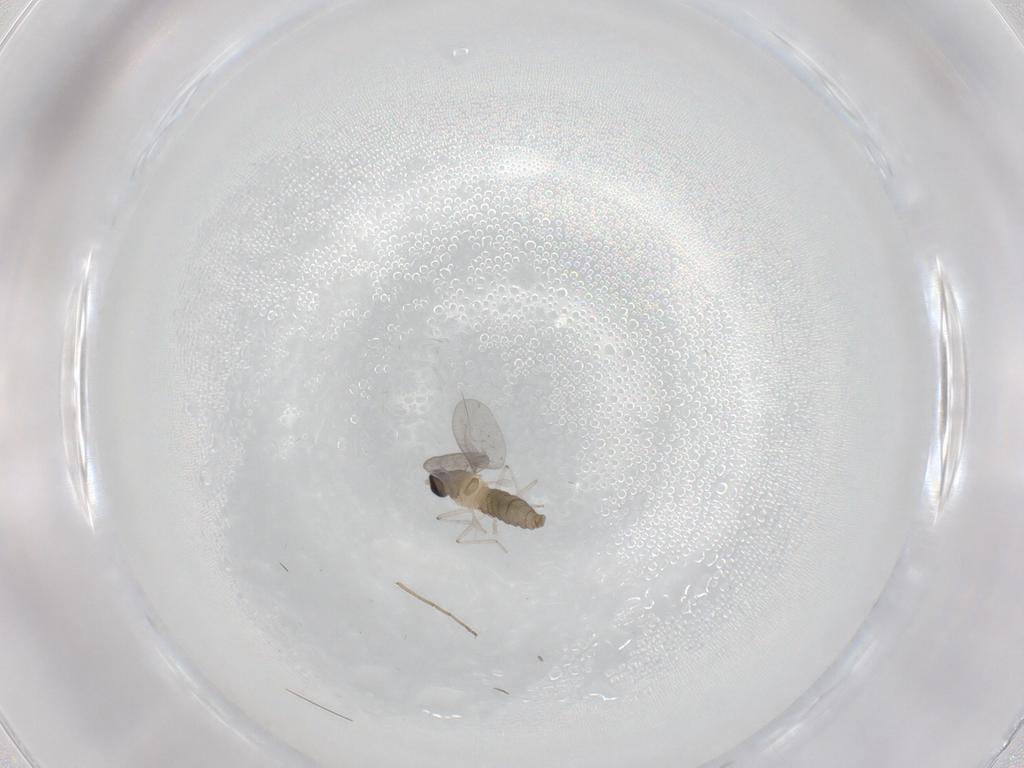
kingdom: Animalia
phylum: Arthropoda
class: Insecta
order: Diptera
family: Cecidomyiidae
